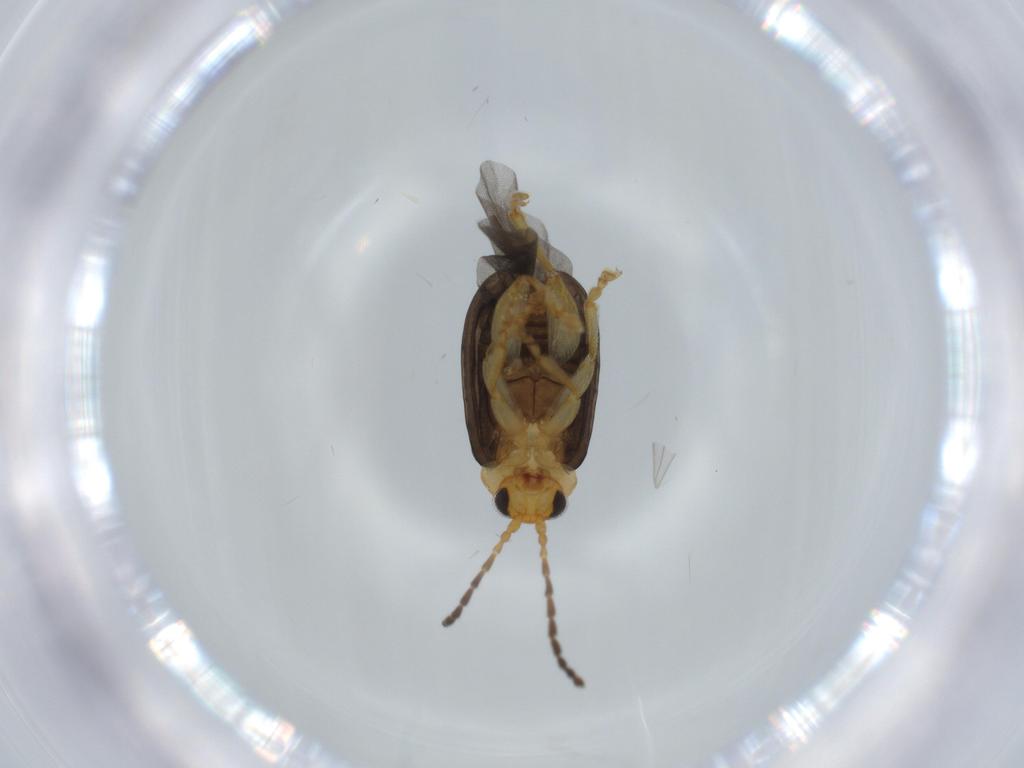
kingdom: Animalia
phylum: Arthropoda
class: Insecta
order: Coleoptera
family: Chrysomelidae
